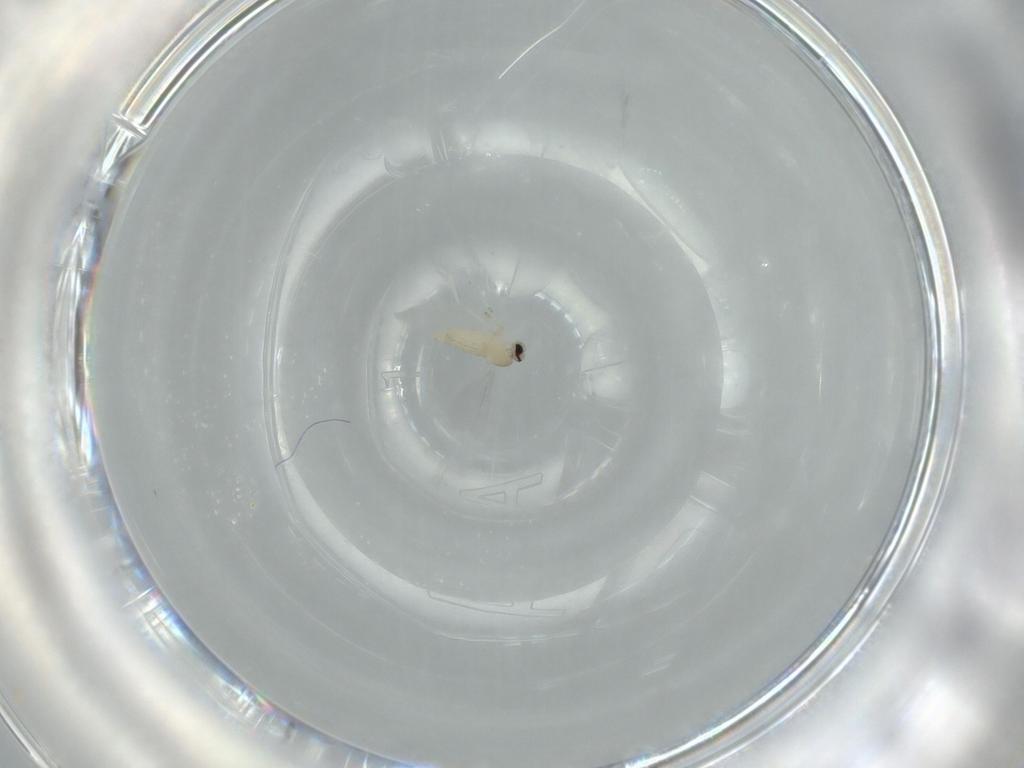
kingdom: Animalia
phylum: Arthropoda
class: Insecta
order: Diptera
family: Cecidomyiidae
